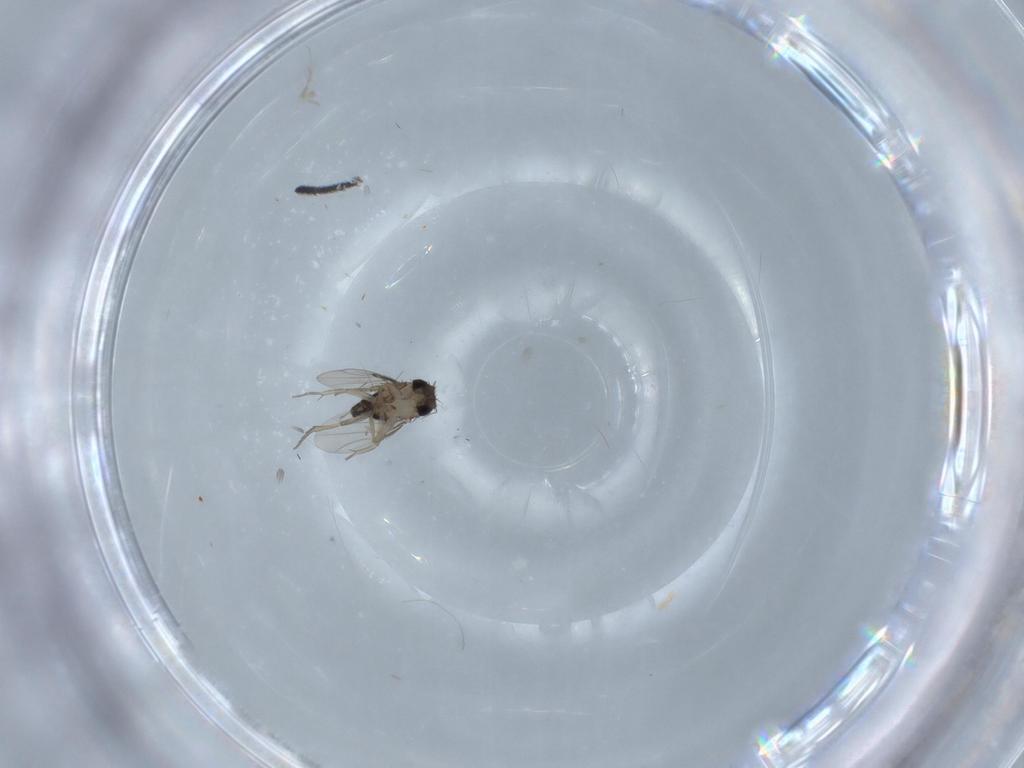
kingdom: Animalia
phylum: Arthropoda
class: Insecta
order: Diptera
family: Phoridae
